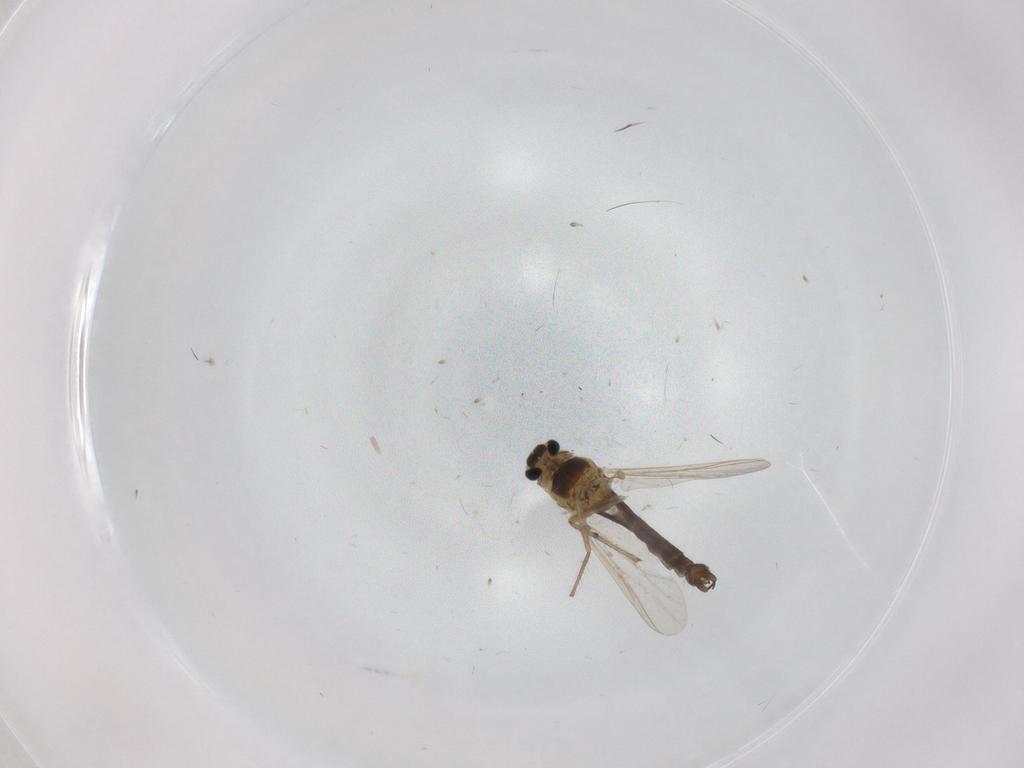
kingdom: Animalia
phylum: Arthropoda
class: Insecta
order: Diptera
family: Chironomidae
